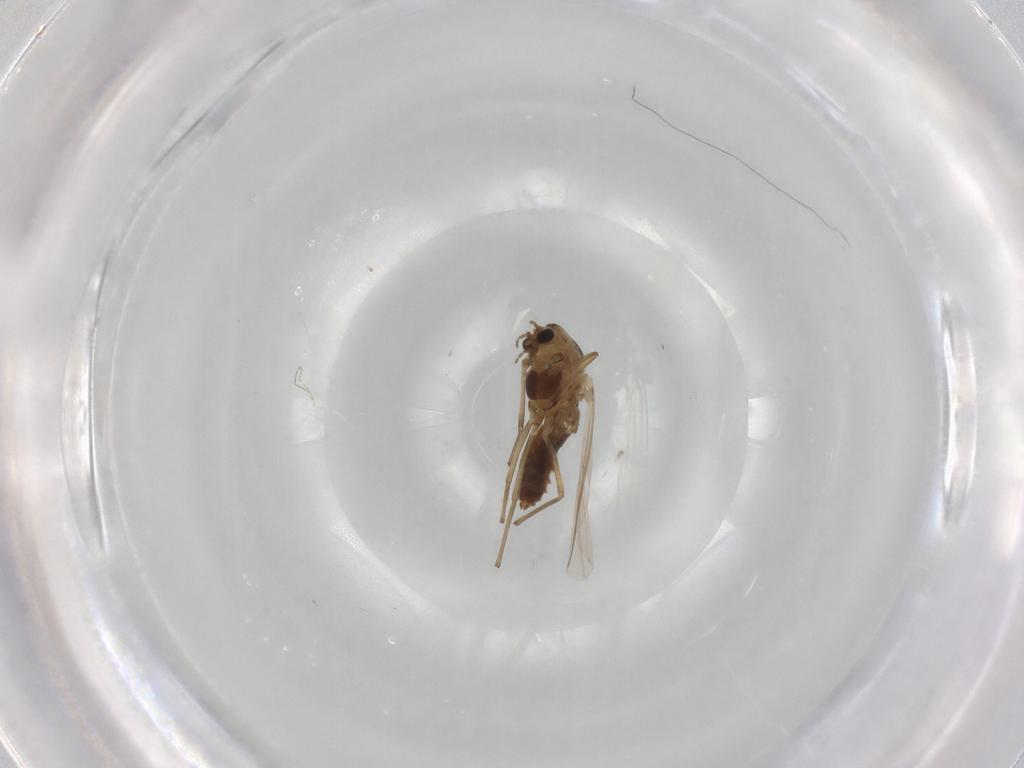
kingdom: Animalia
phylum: Arthropoda
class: Insecta
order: Diptera
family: Chironomidae
